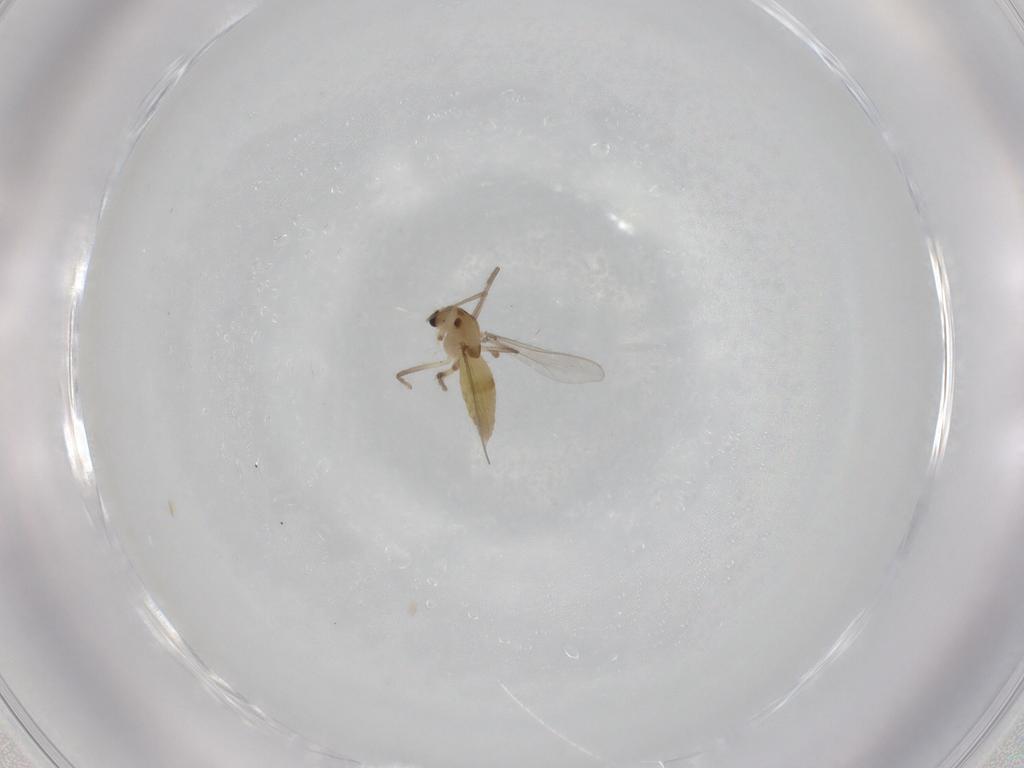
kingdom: Animalia
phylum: Arthropoda
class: Insecta
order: Diptera
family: Chironomidae
